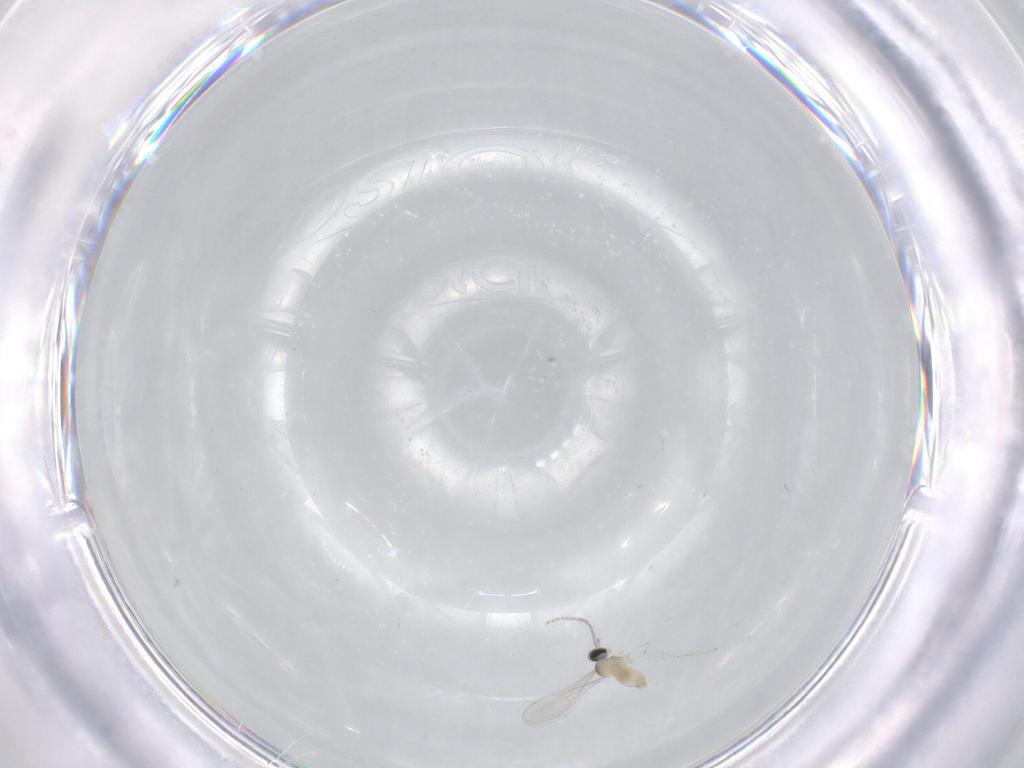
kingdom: Animalia
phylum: Arthropoda
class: Insecta
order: Diptera
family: Cecidomyiidae
